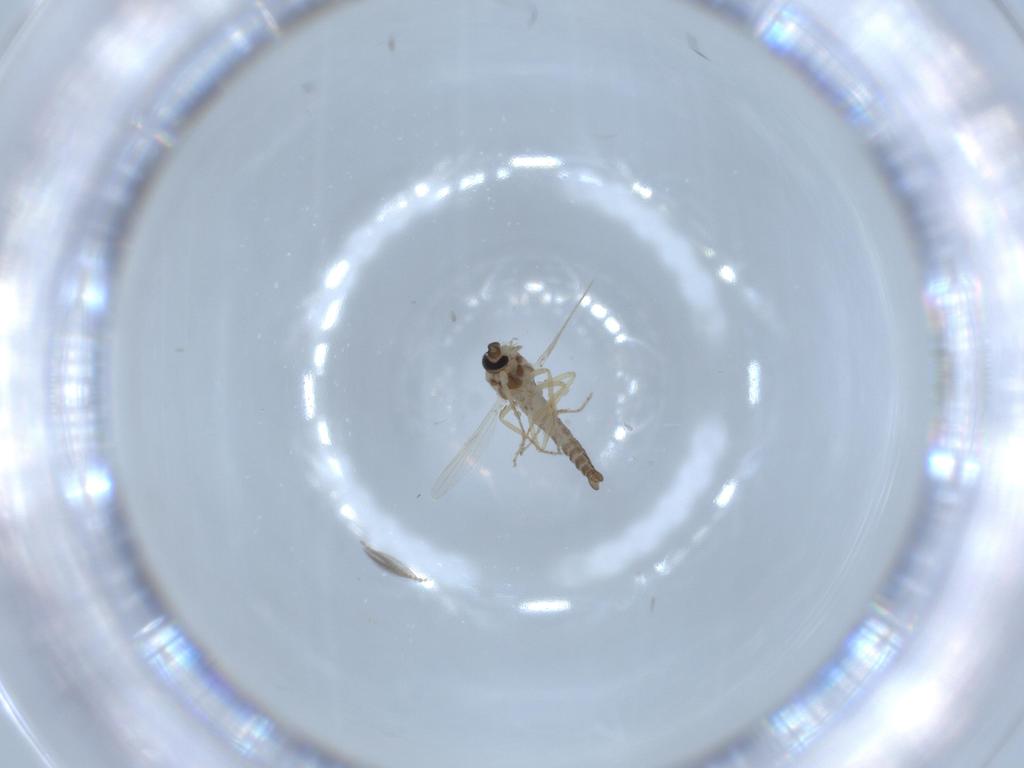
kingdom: Animalia
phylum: Arthropoda
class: Insecta
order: Diptera
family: Ceratopogonidae
